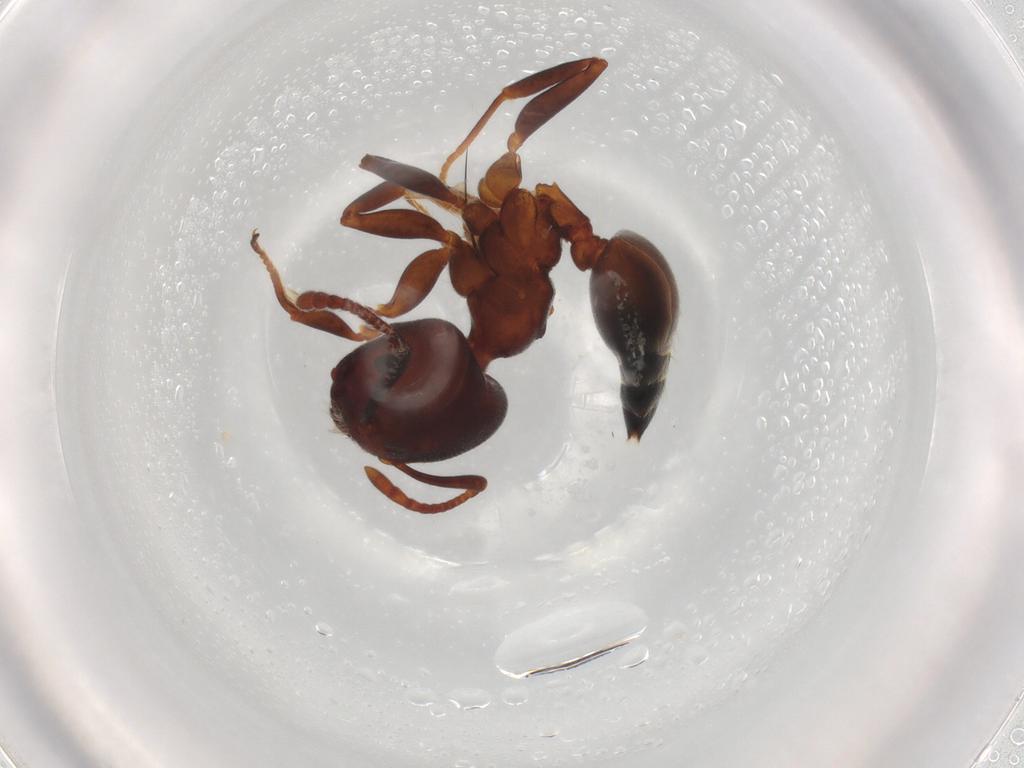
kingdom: Animalia
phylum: Arthropoda
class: Insecta
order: Hymenoptera
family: Formicidae
